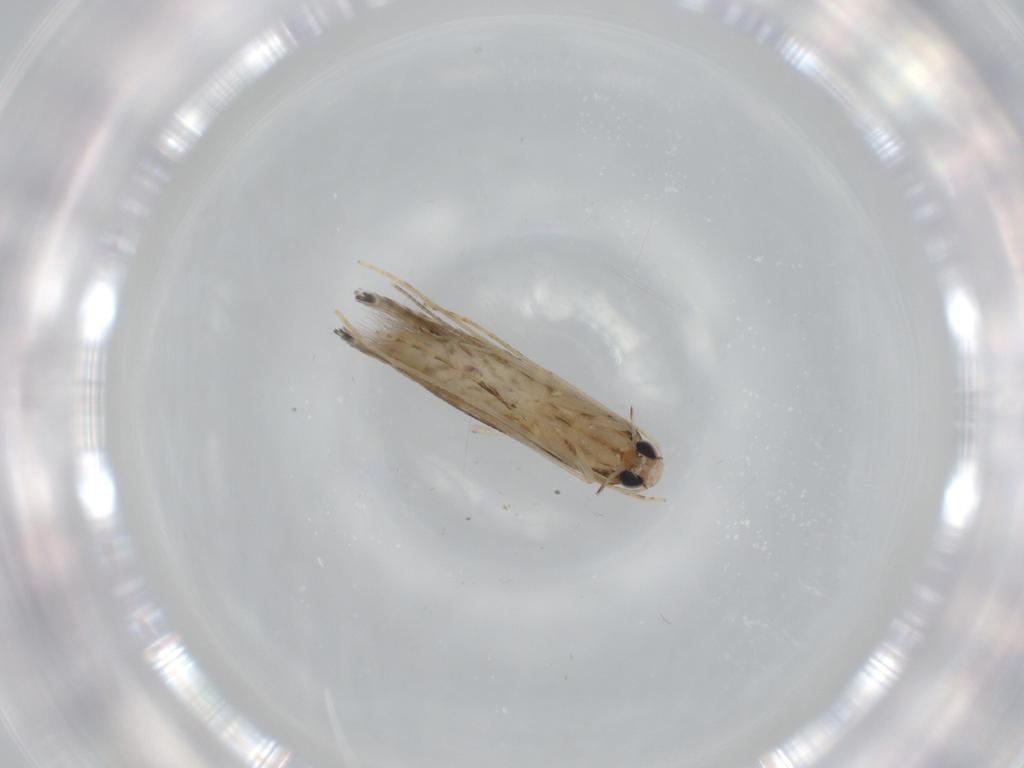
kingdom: Animalia
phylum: Arthropoda
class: Insecta
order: Lepidoptera
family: Gracillariidae
